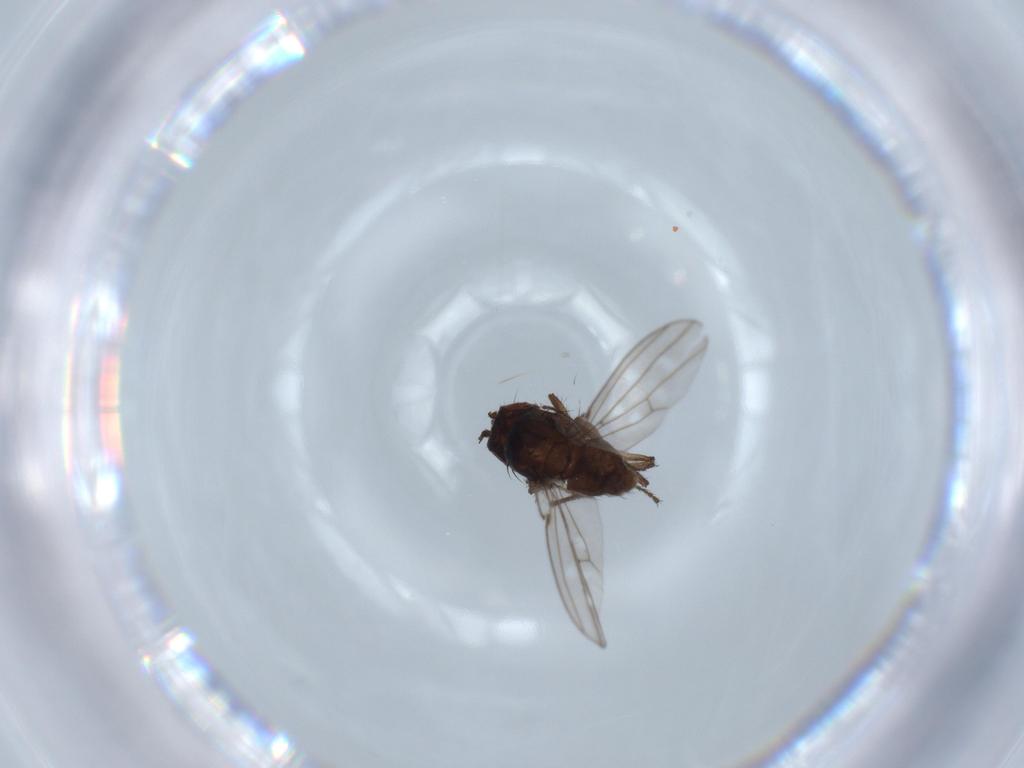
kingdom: Animalia
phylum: Arthropoda
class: Insecta
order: Diptera
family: Ephydridae
